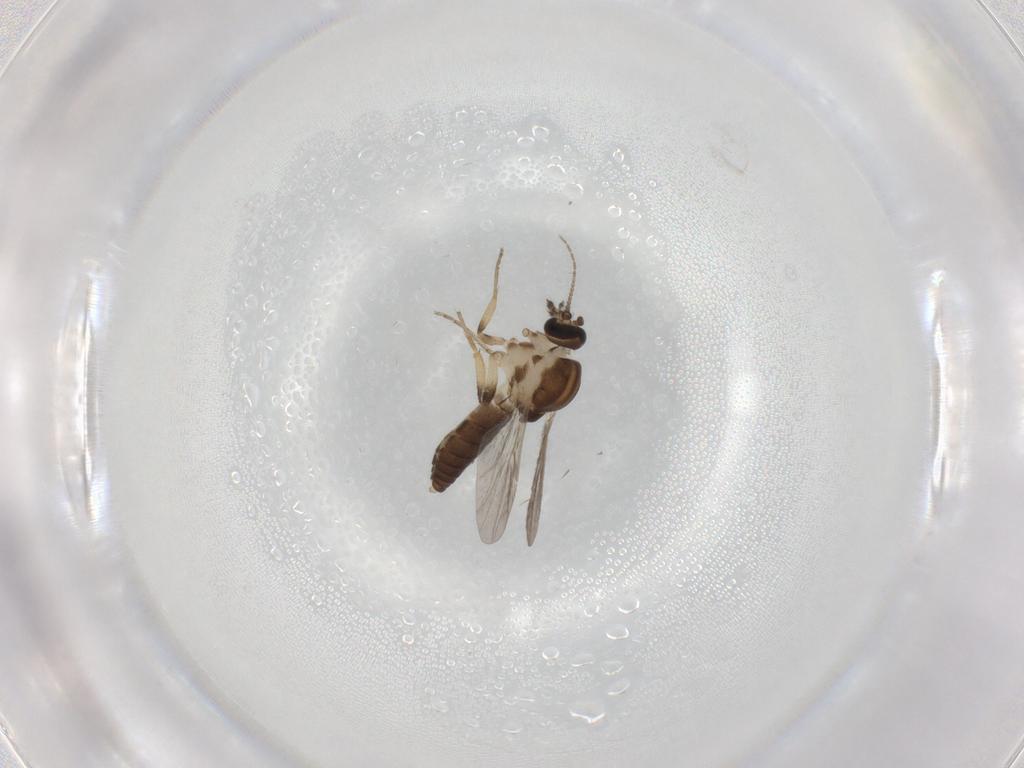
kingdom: Animalia
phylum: Arthropoda
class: Insecta
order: Diptera
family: Ceratopogonidae
